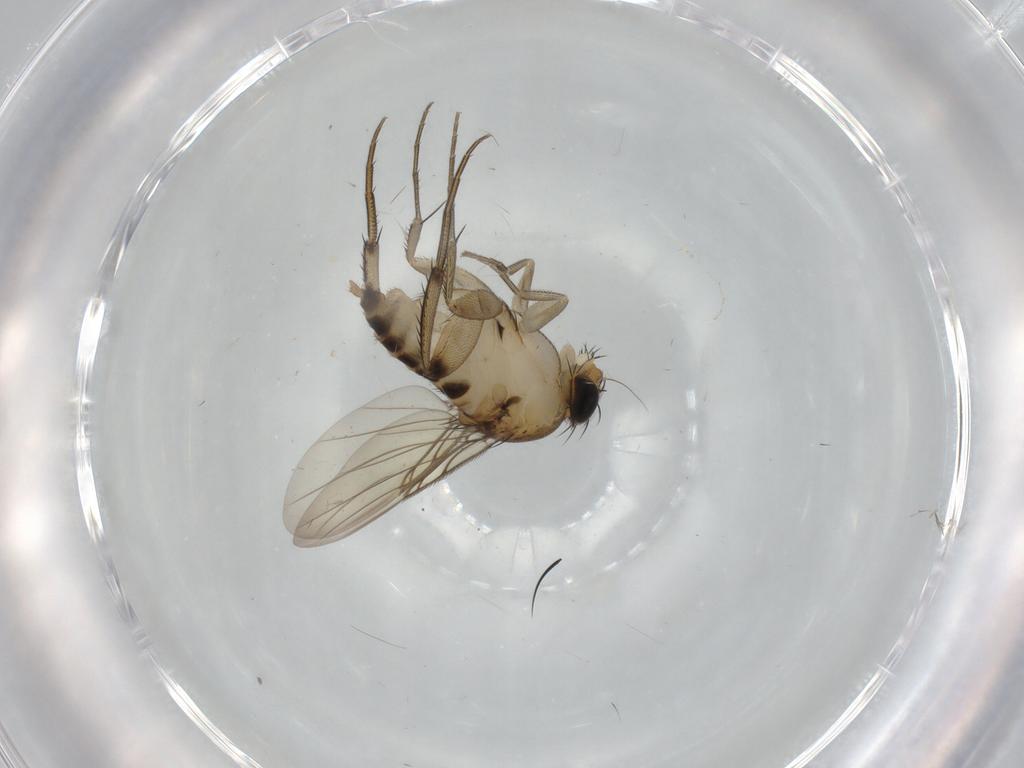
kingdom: Animalia
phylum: Arthropoda
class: Insecta
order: Diptera
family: Cecidomyiidae
